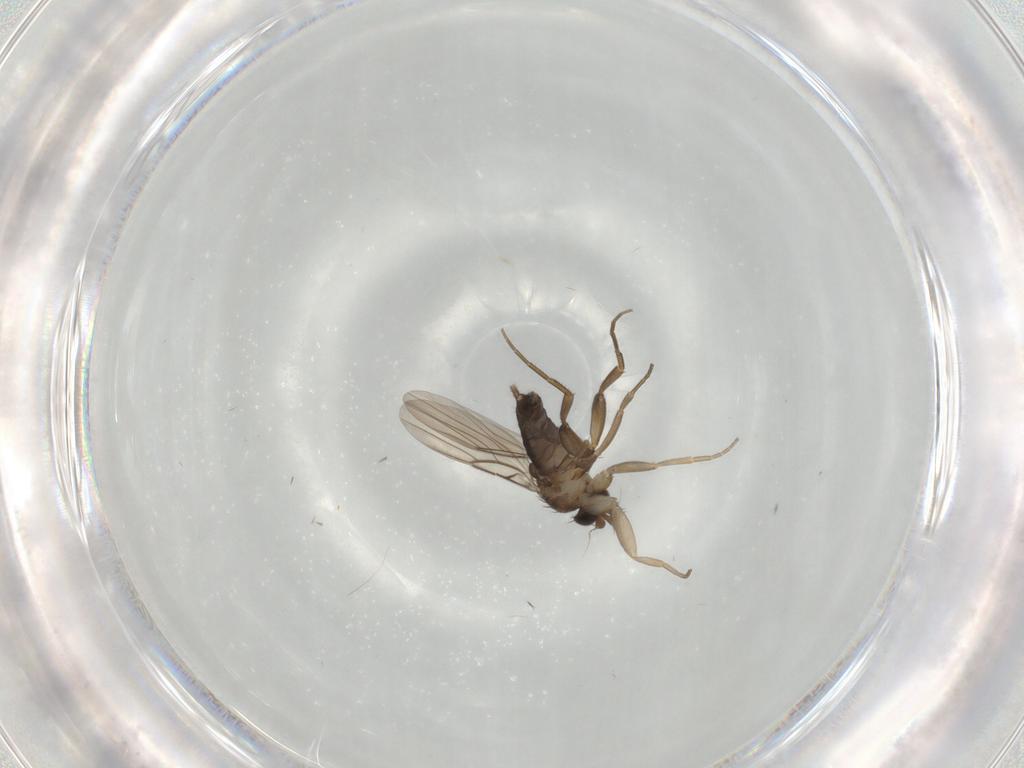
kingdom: Animalia
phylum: Arthropoda
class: Insecta
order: Diptera
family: Phoridae
